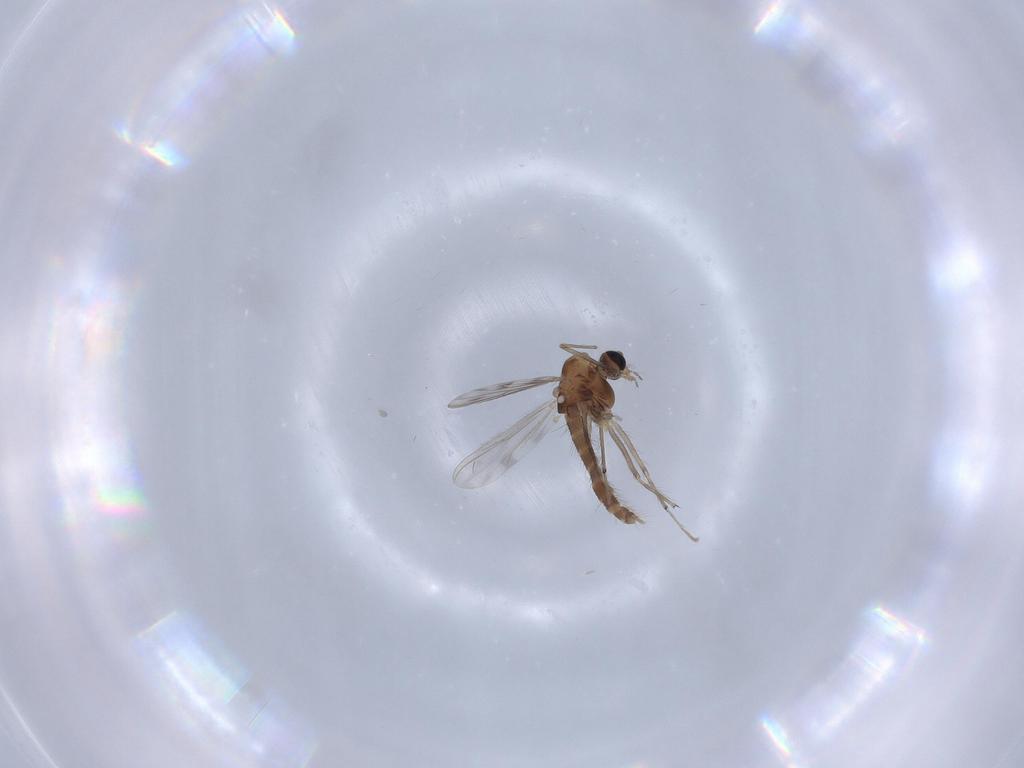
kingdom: Animalia
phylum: Arthropoda
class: Insecta
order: Diptera
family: Chironomidae
